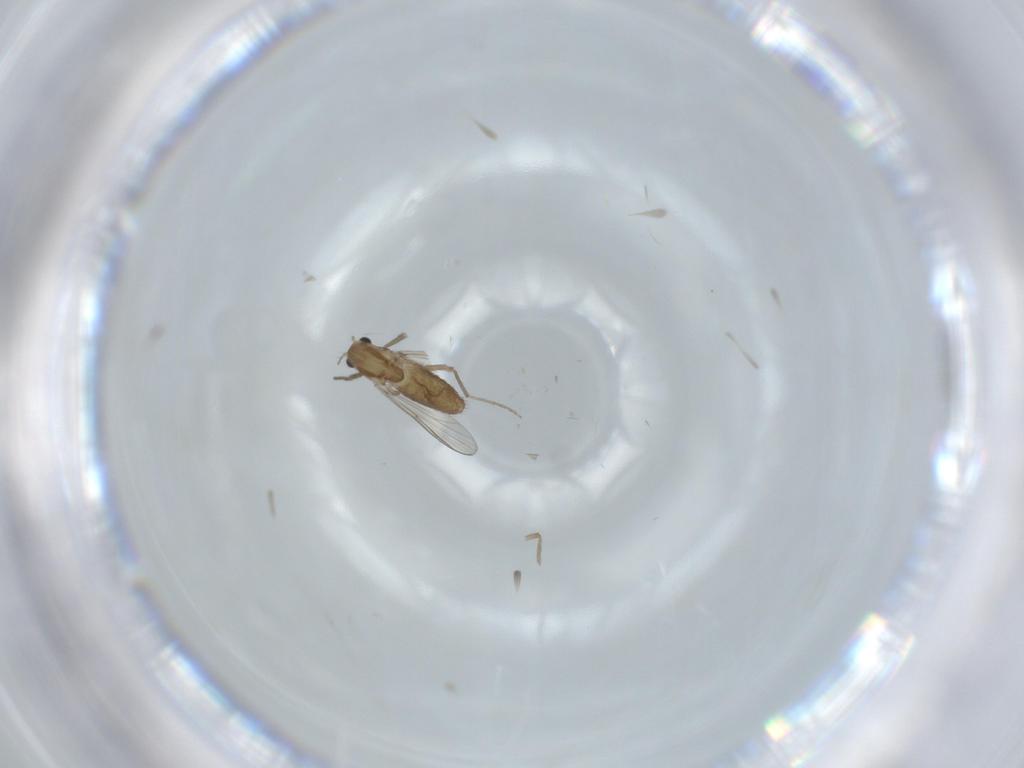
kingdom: Animalia
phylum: Arthropoda
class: Insecta
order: Diptera
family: Chironomidae
